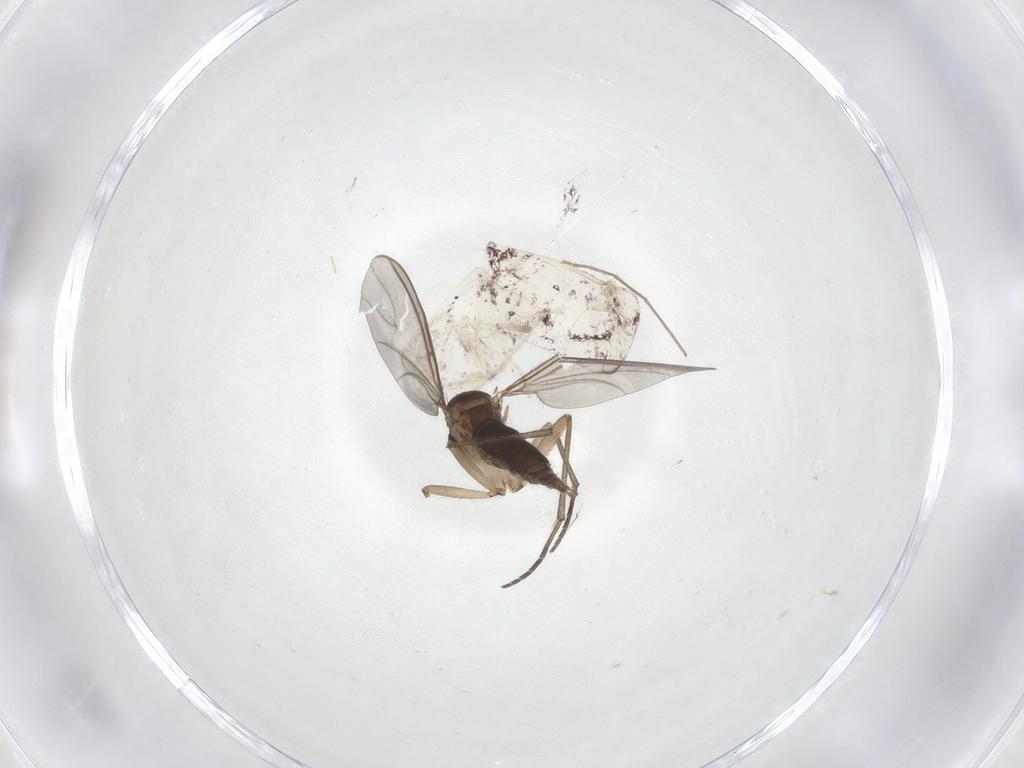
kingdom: Animalia
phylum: Arthropoda
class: Insecta
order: Diptera
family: Sciaridae
